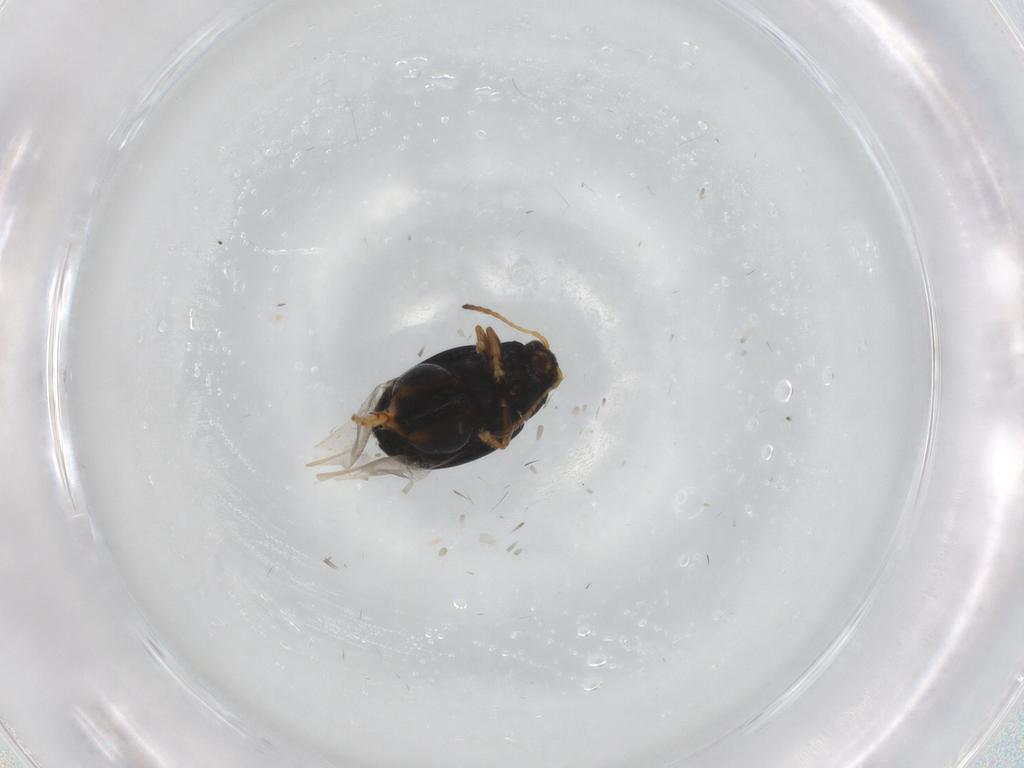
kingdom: Animalia
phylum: Arthropoda
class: Insecta
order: Coleoptera
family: Chrysomelidae
